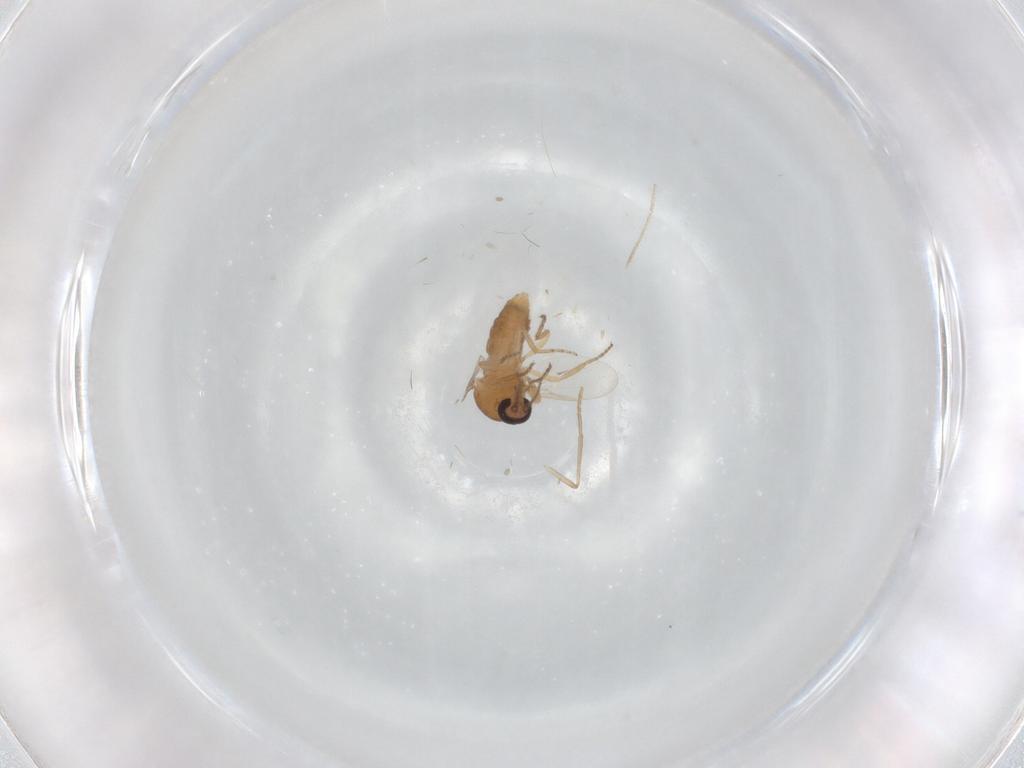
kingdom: Animalia
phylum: Arthropoda
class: Insecta
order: Diptera
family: Ceratopogonidae
